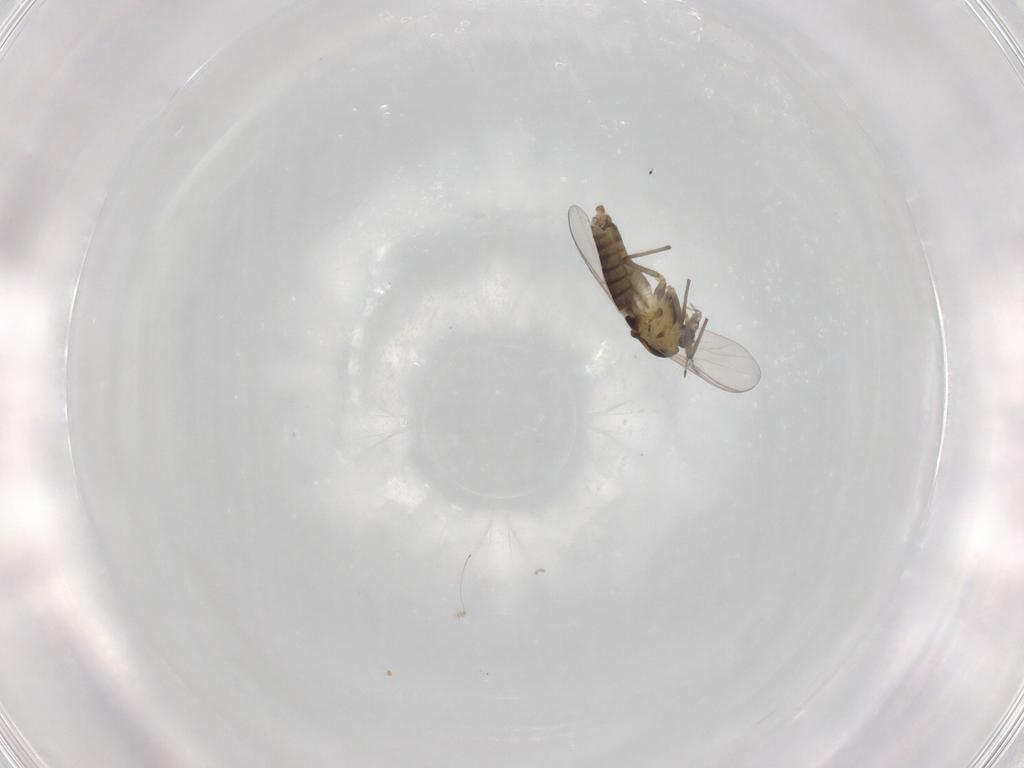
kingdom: Animalia
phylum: Arthropoda
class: Insecta
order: Diptera
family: Chironomidae
